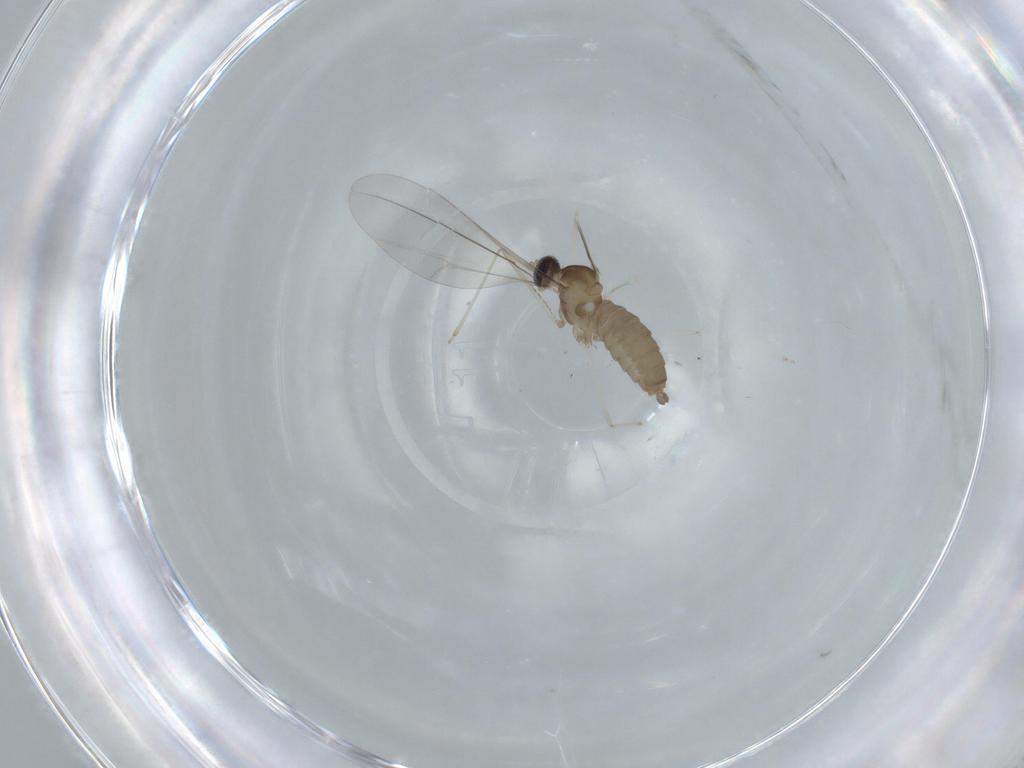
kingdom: Animalia
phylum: Arthropoda
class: Insecta
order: Diptera
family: Cecidomyiidae
